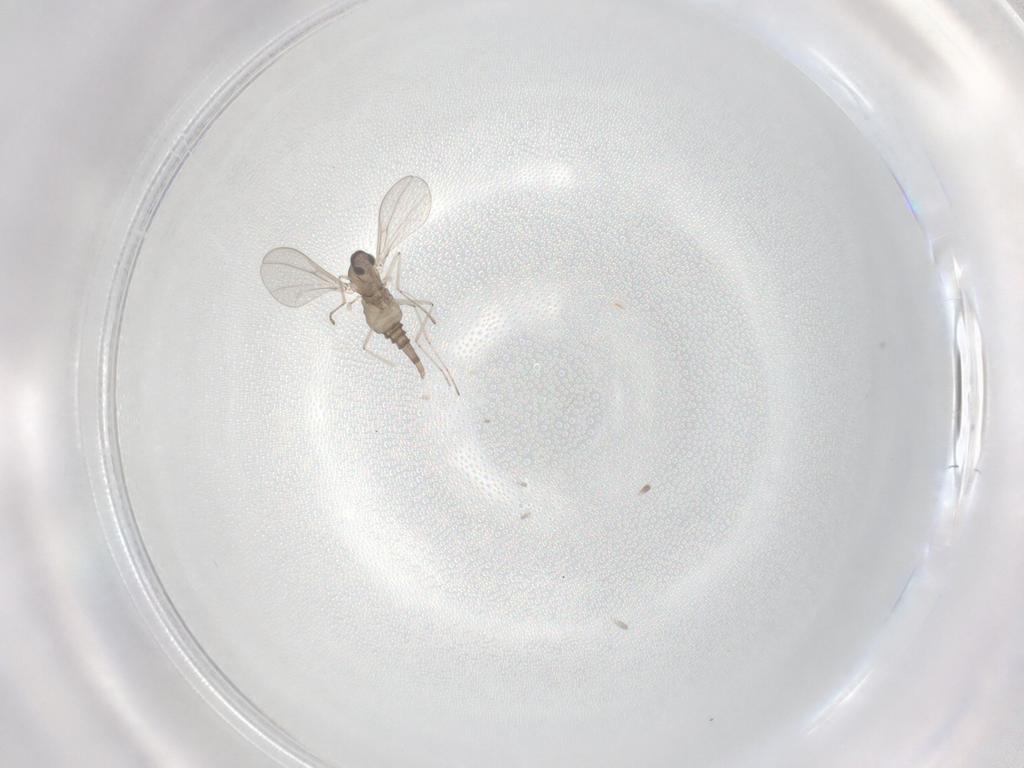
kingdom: Animalia
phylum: Arthropoda
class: Insecta
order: Diptera
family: Cecidomyiidae
